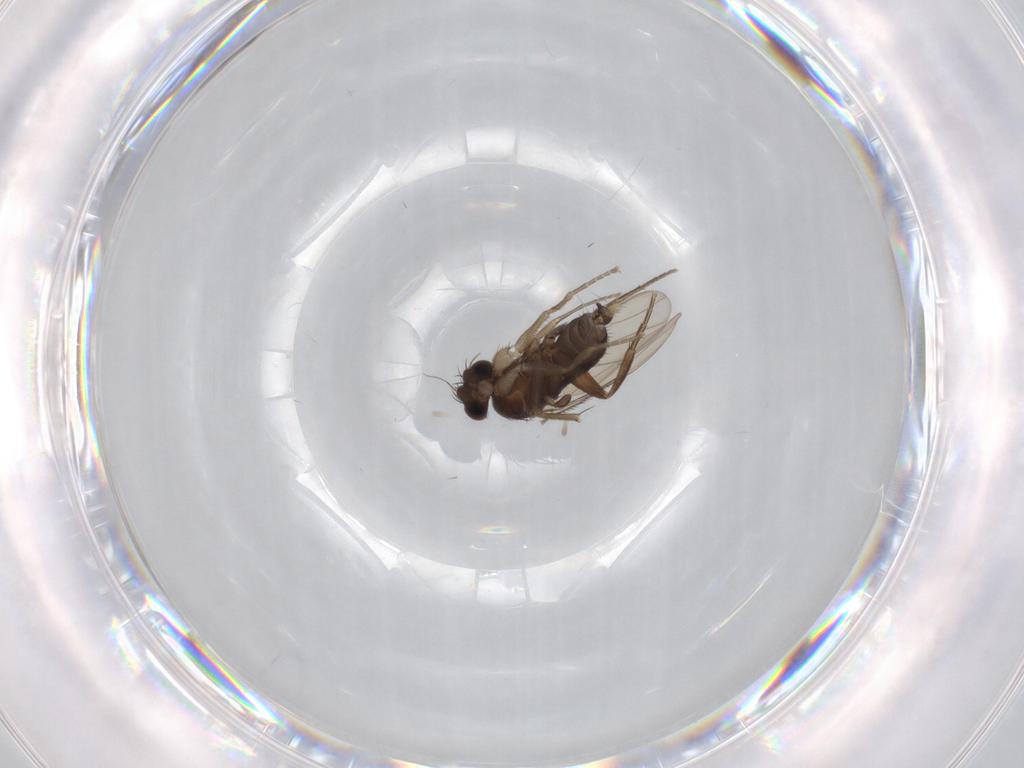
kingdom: Animalia
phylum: Arthropoda
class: Insecta
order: Diptera
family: Phoridae
